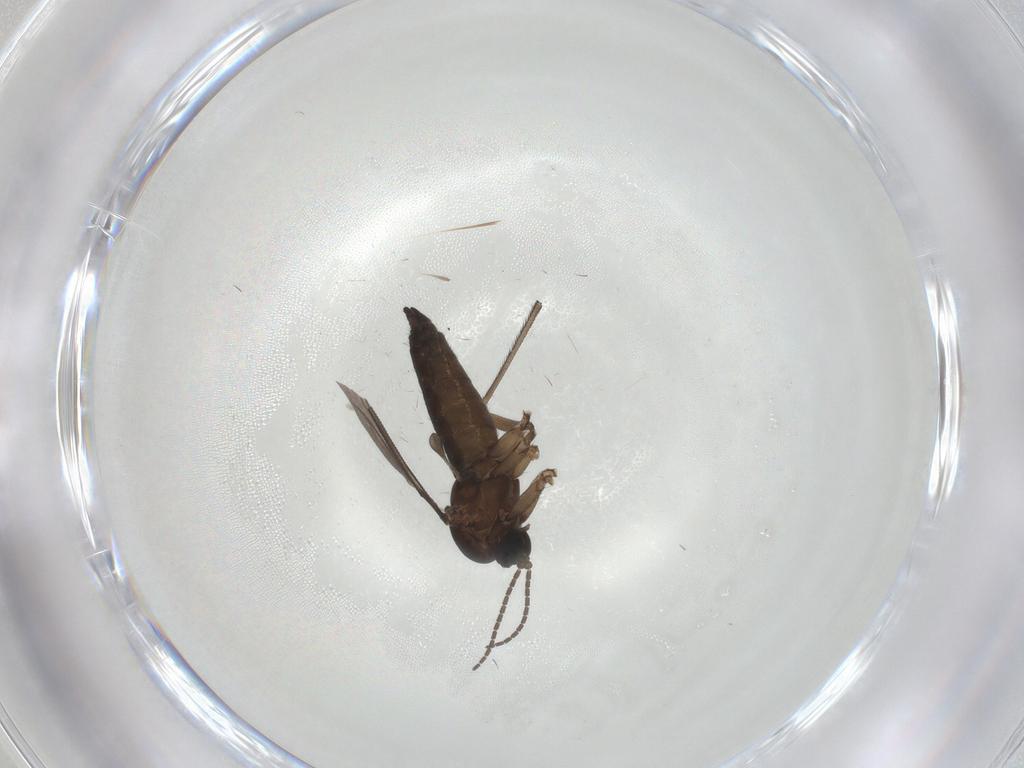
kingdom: Animalia
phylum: Arthropoda
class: Insecta
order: Diptera
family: Sciaridae
